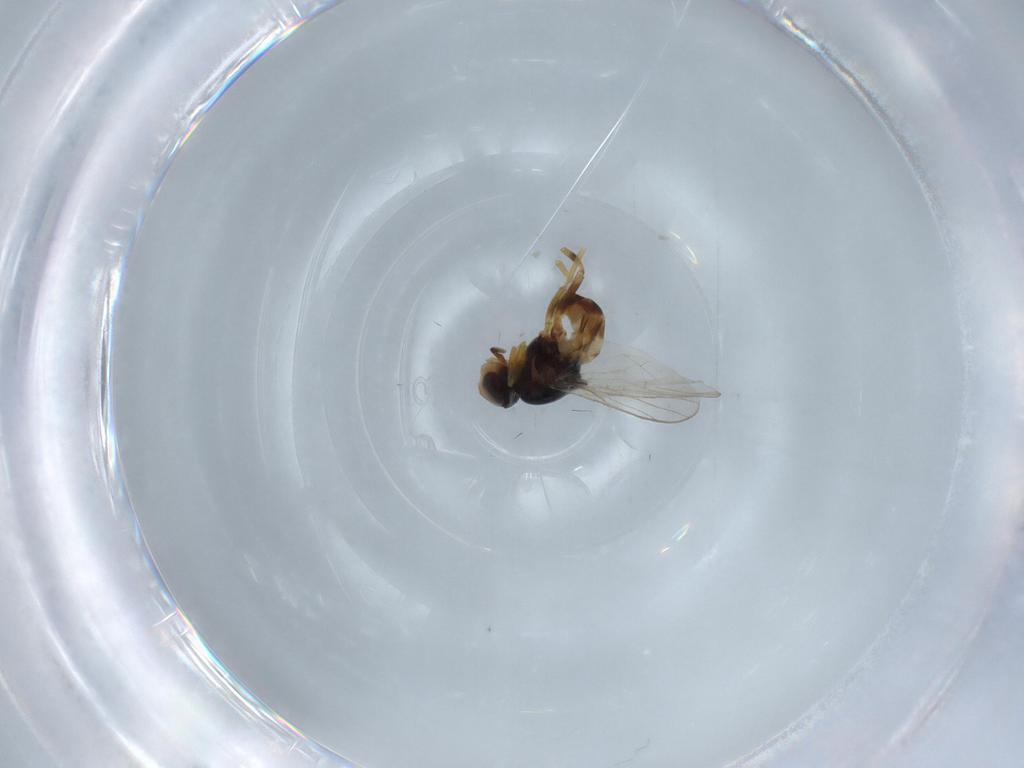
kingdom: Animalia
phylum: Arthropoda
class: Insecta
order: Diptera
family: Chloropidae
